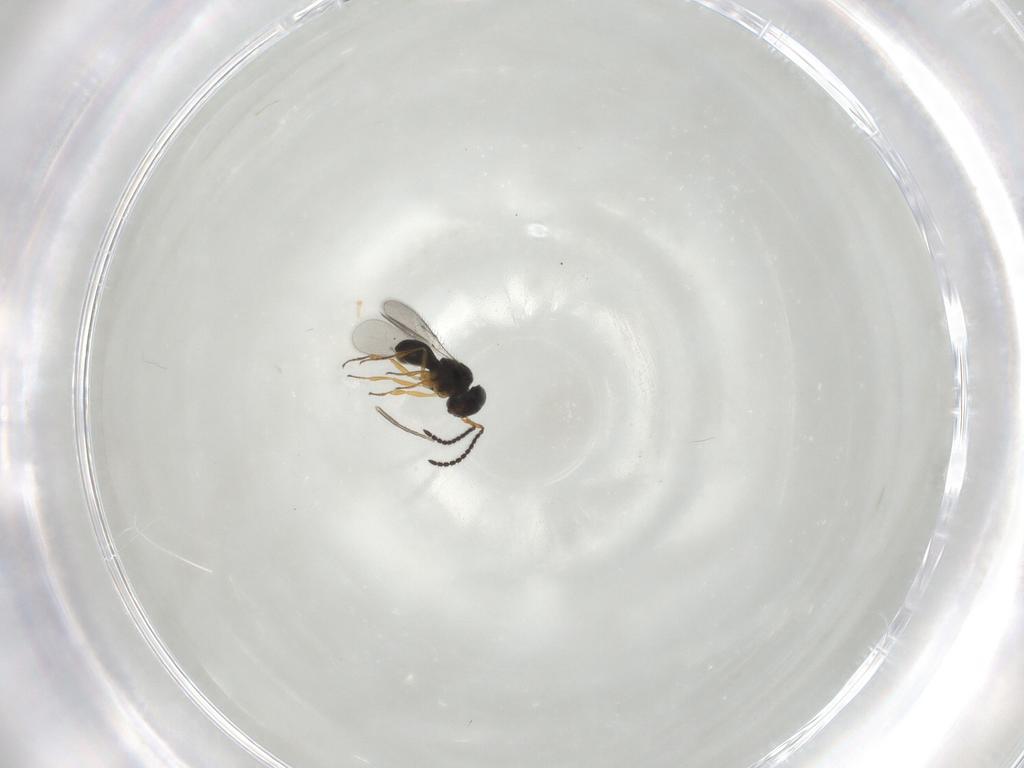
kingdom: Animalia
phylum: Arthropoda
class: Insecta
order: Hymenoptera
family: Scelionidae
